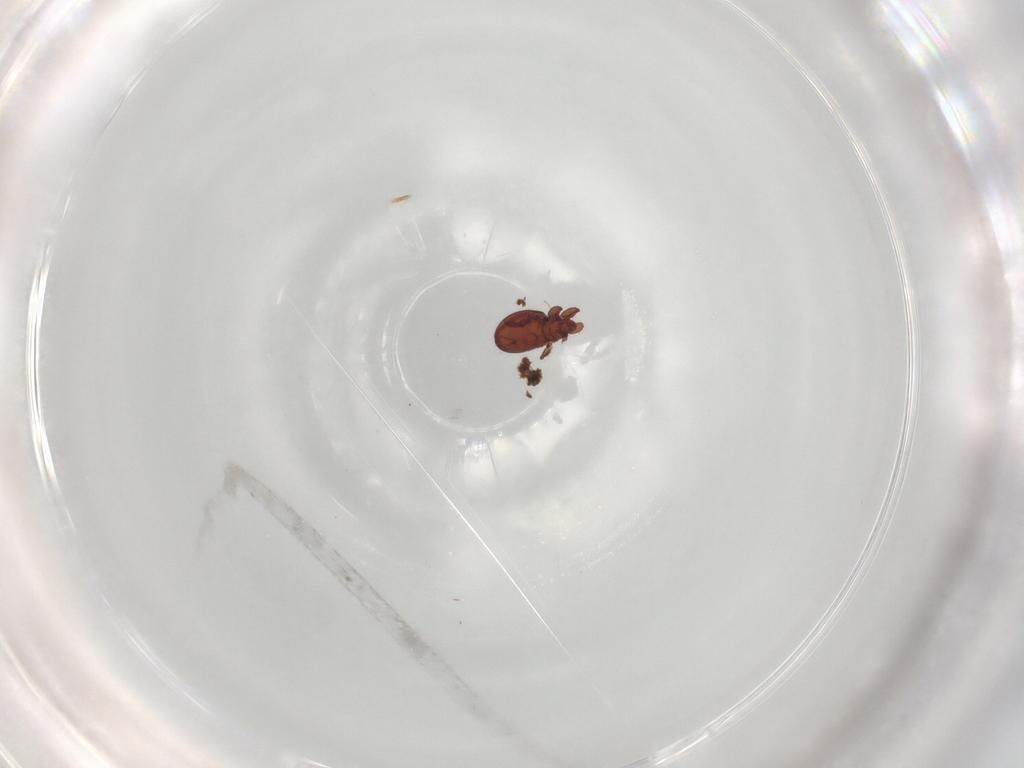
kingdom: Animalia
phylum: Arthropoda
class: Arachnida
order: Sarcoptiformes
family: Eremaeidae
